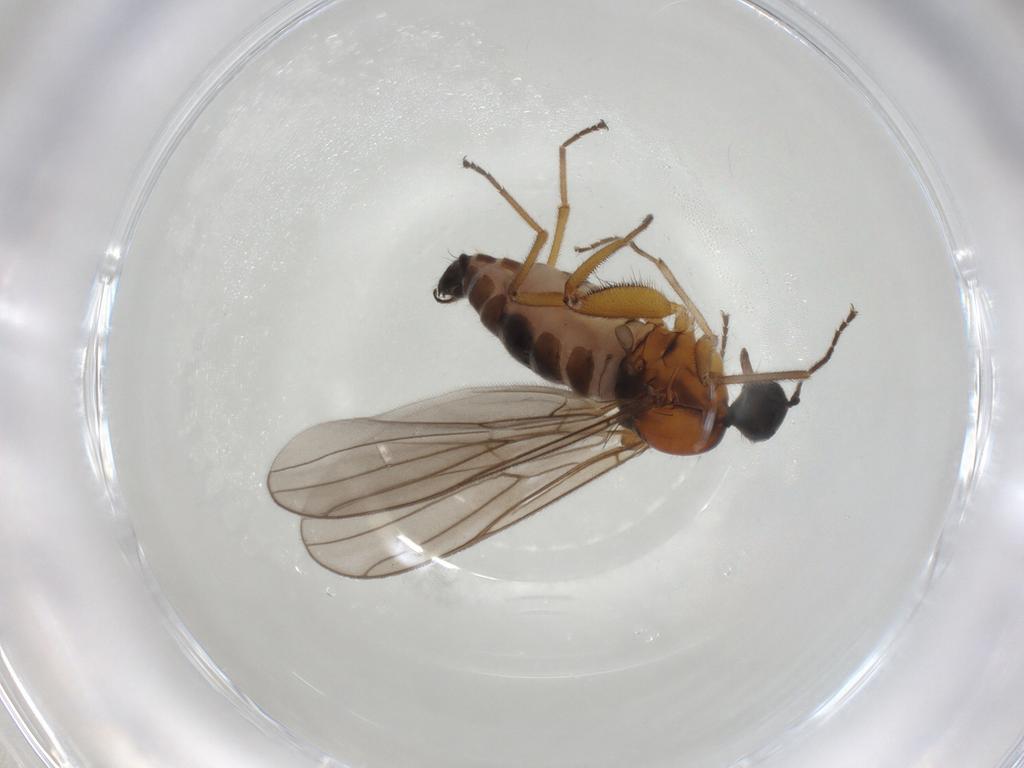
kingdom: Animalia
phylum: Arthropoda
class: Insecta
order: Diptera
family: Hybotidae
